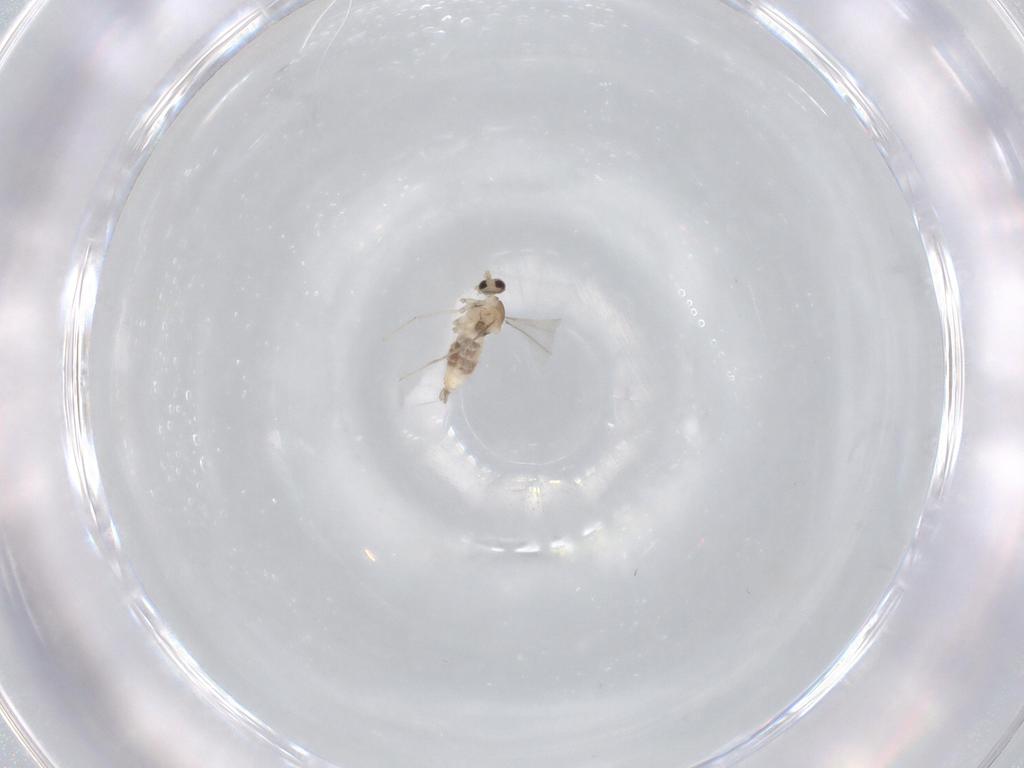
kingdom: Animalia
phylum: Arthropoda
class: Insecta
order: Diptera
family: Cecidomyiidae
